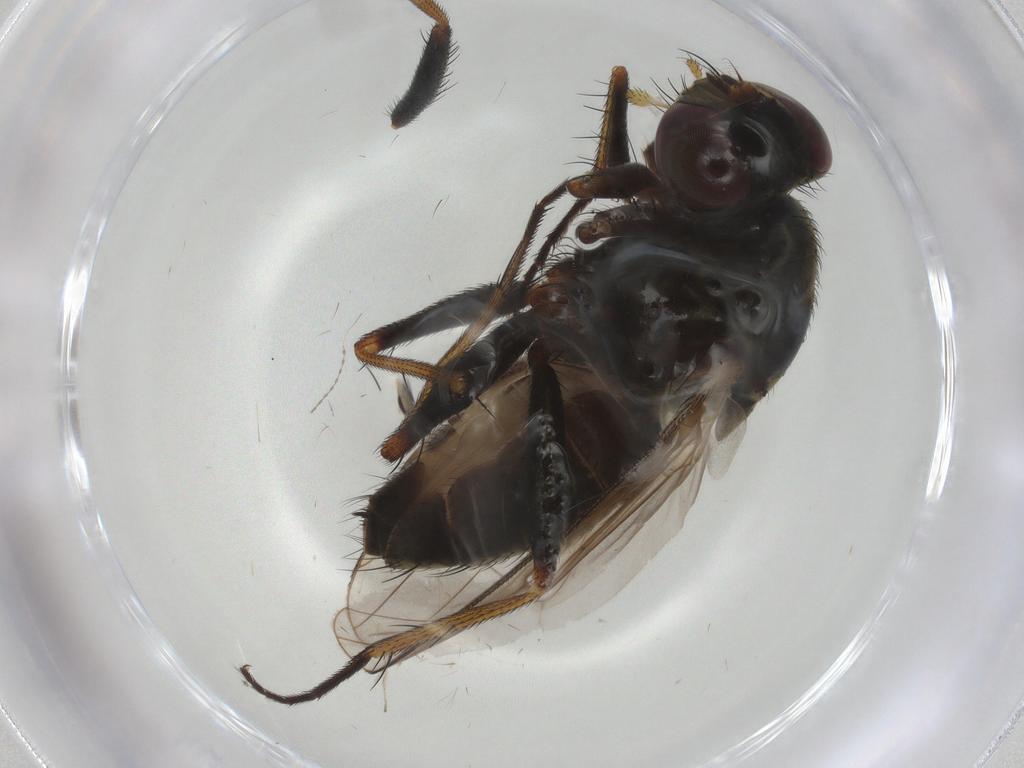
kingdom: Animalia
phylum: Arthropoda
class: Insecta
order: Diptera
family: Muscidae
